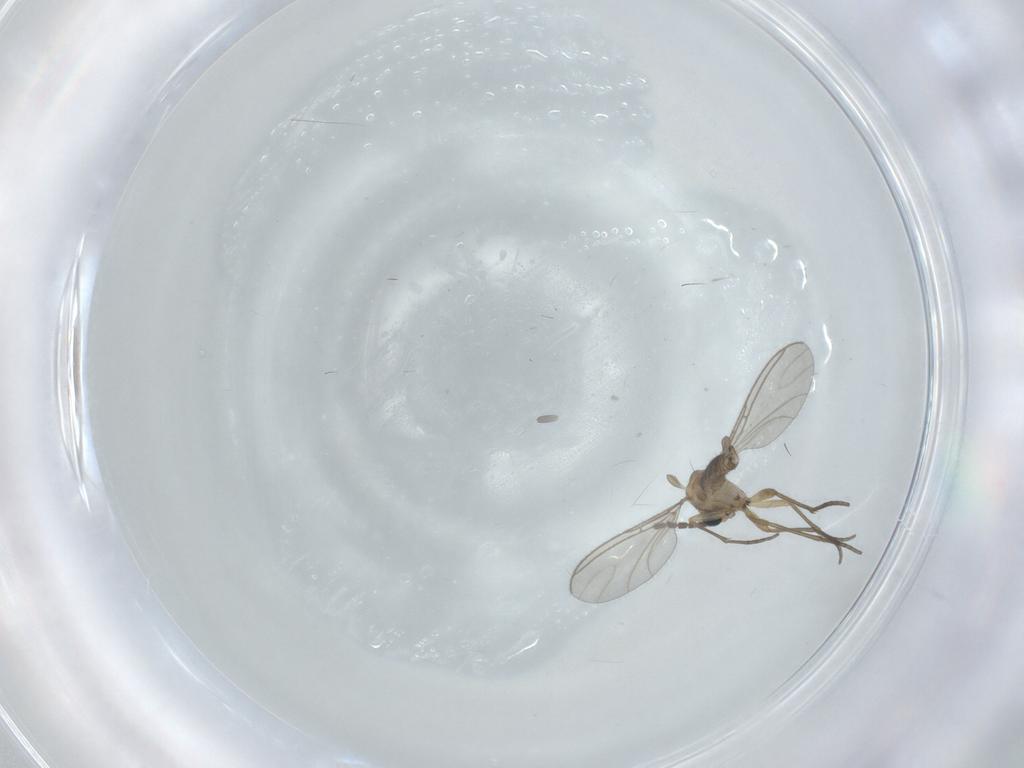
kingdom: Animalia
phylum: Arthropoda
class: Insecta
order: Diptera
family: Sciaridae
